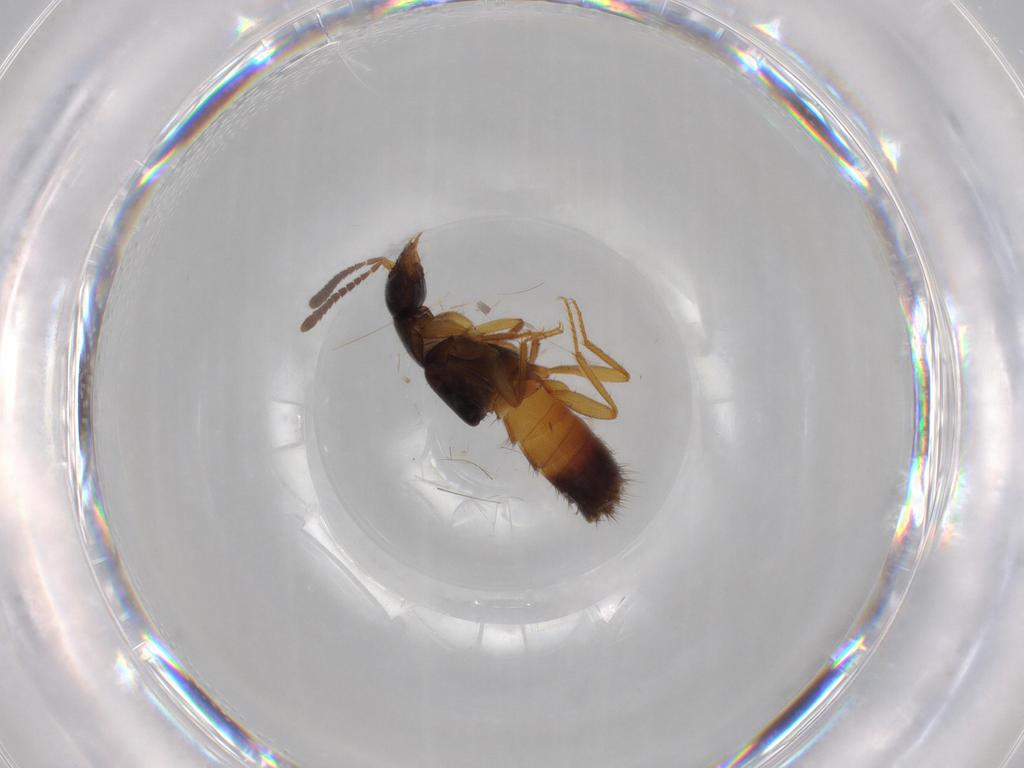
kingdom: Animalia
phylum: Arthropoda
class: Insecta
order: Coleoptera
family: Staphylinidae
